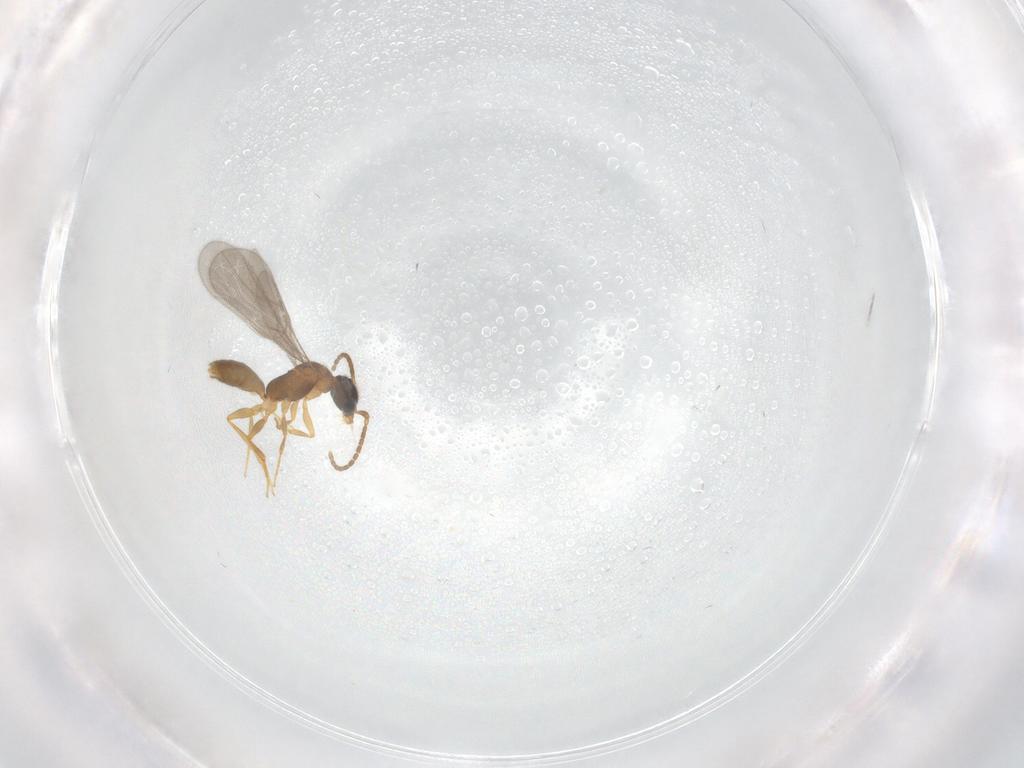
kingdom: Animalia
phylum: Arthropoda
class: Insecta
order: Hymenoptera
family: Bethylidae
